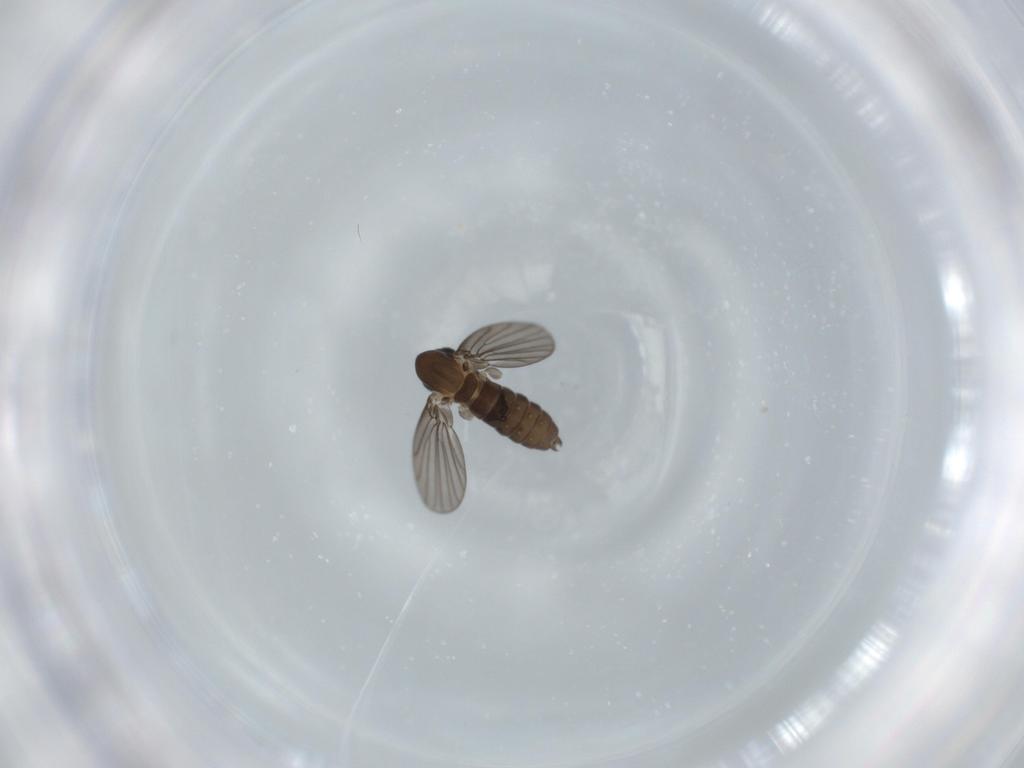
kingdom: Animalia
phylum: Arthropoda
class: Insecta
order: Diptera
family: Psychodidae
